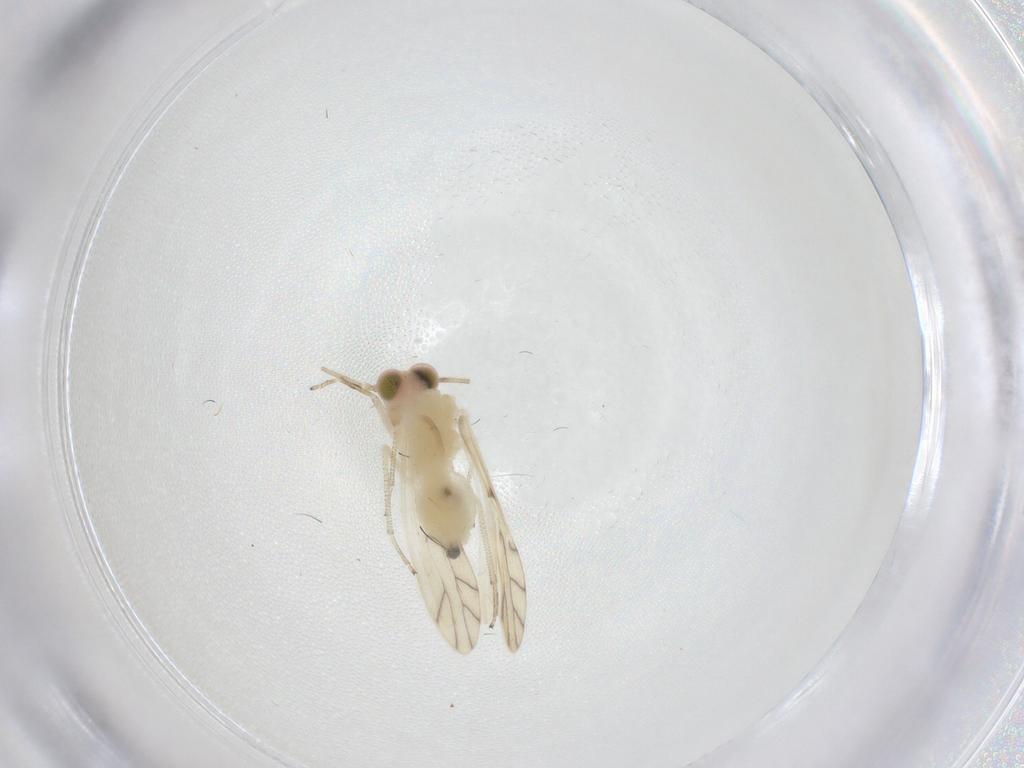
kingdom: Animalia
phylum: Arthropoda
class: Insecta
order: Psocodea
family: Caeciliusidae
